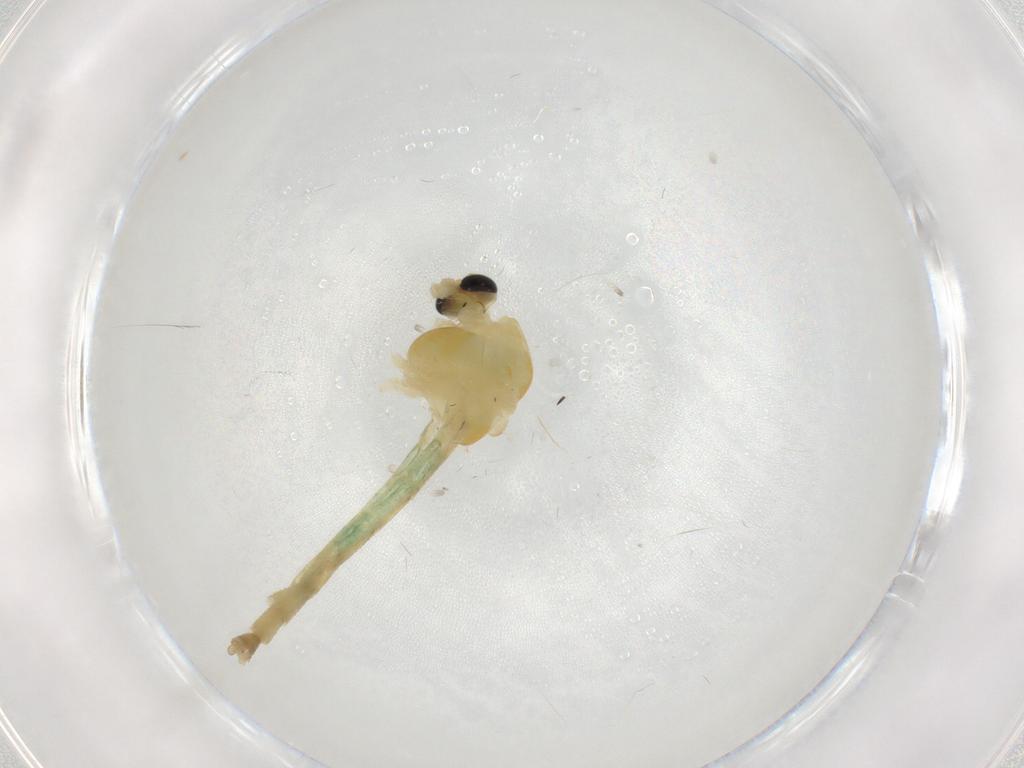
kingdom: Animalia
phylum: Arthropoda
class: Insecta
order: Diptera
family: Chironomidae
